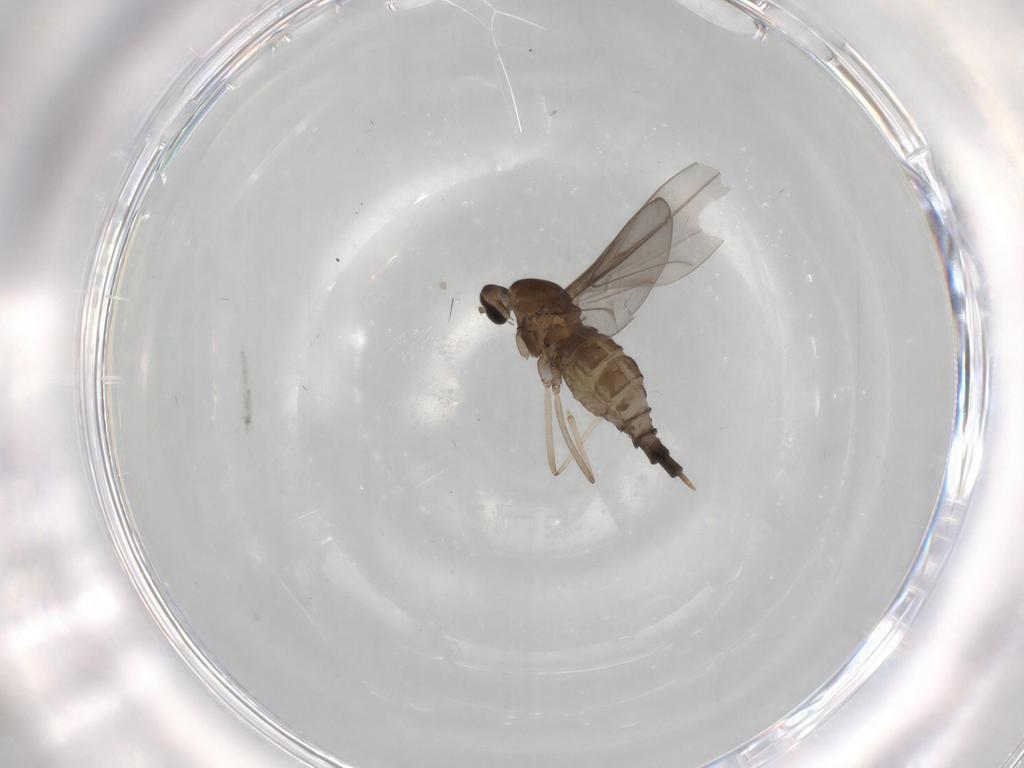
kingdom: Animalia
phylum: Arthropoda
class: Insecta
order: Diptera
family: Cecidomyiidae
